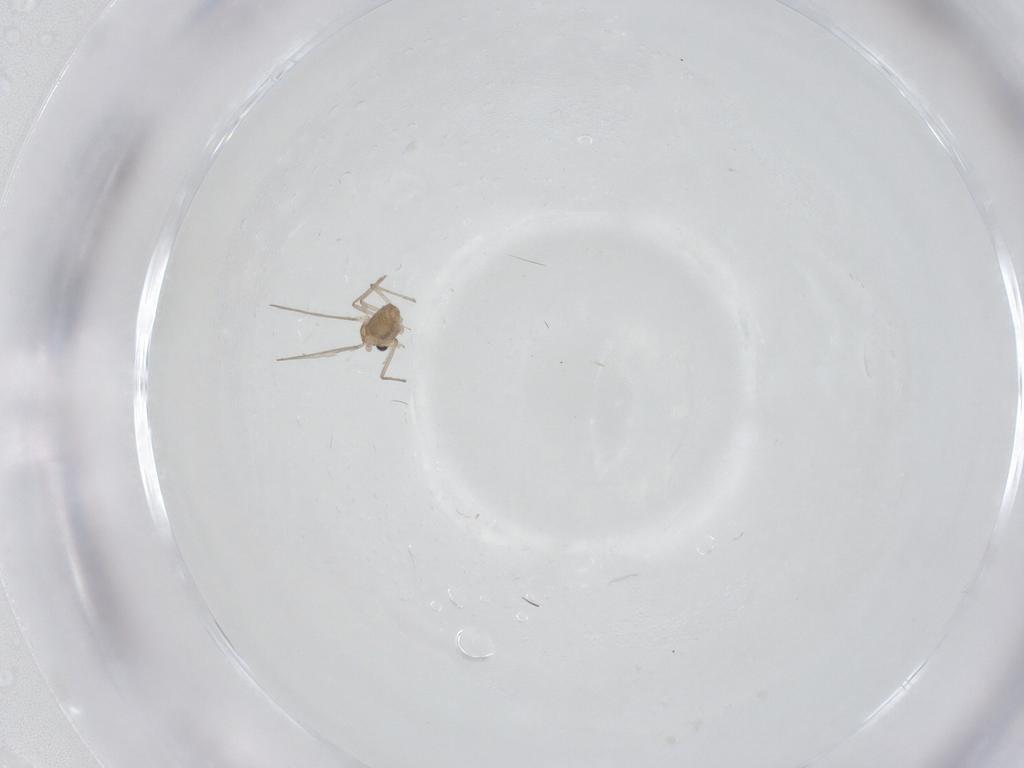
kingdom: Animalia
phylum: Arthropoda
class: Insecta
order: Diptera
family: Chironomidae
